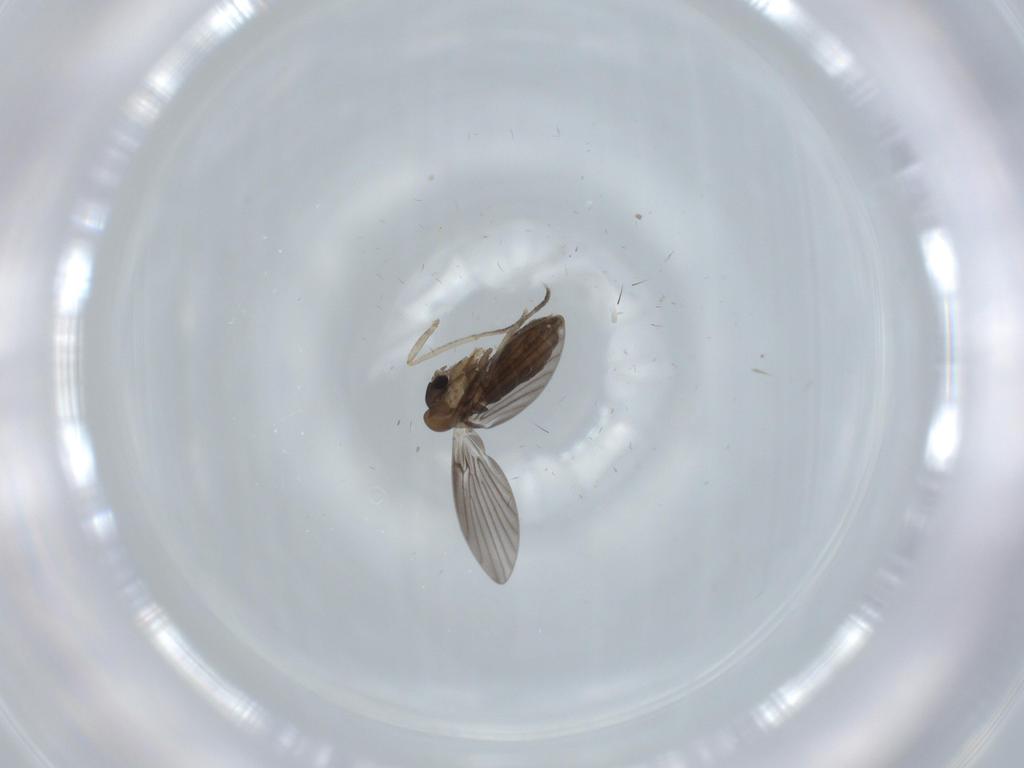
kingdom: Animalia
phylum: Arthropoda
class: Insecta
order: Diptera
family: Psychodidae
